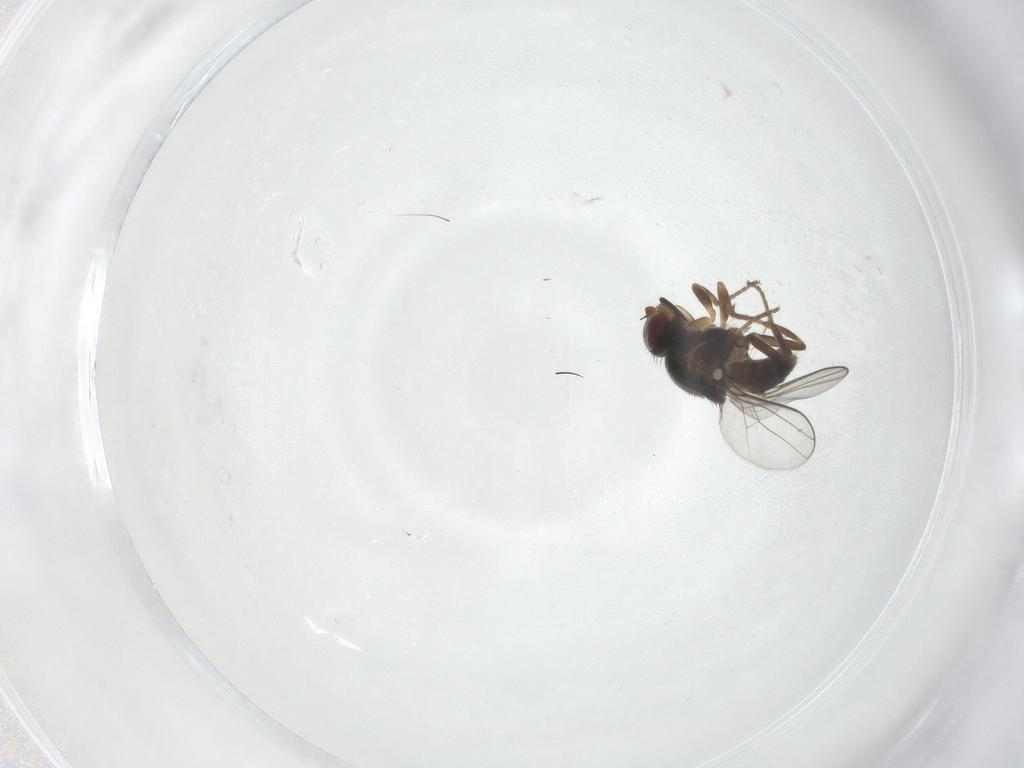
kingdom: Animalia
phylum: Arthropoda
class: Insecta
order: Diptera
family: Chloropidae
